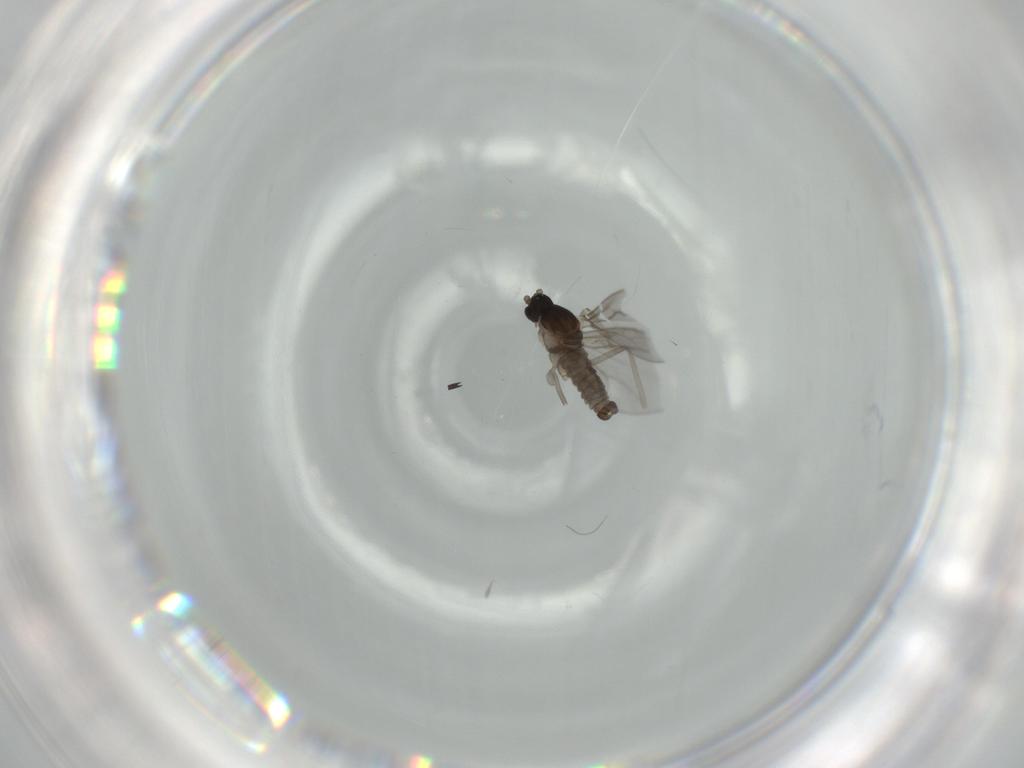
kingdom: Animalia
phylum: Arthropoda
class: Insecta
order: Diptera
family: Cecidomyiidae
